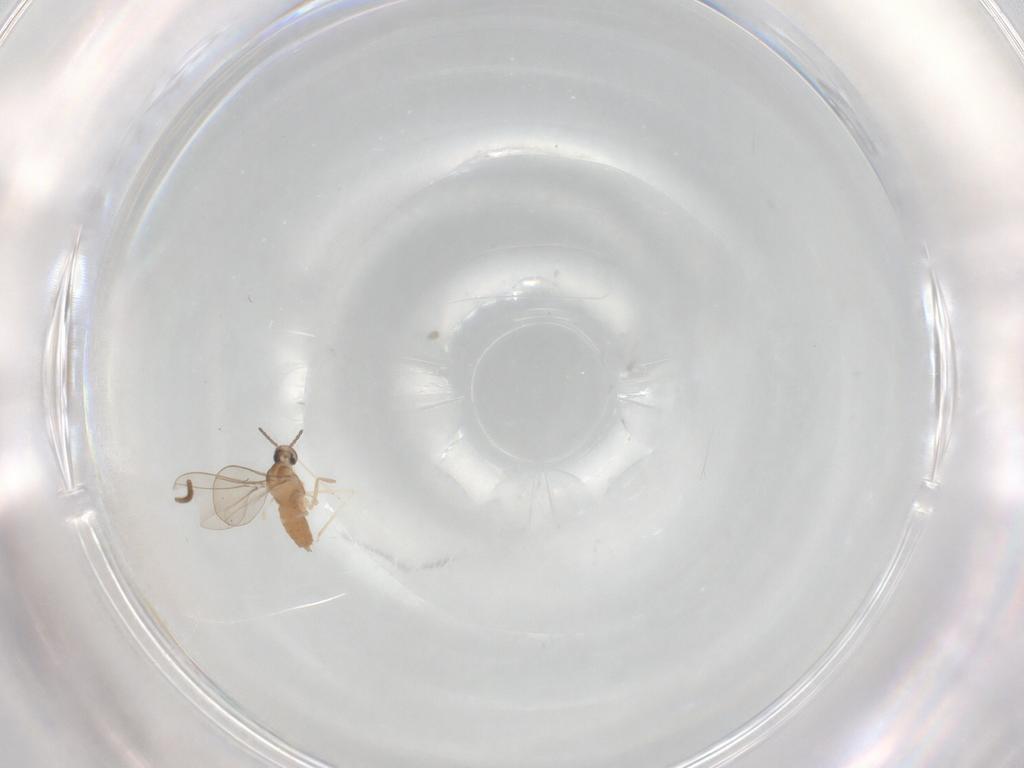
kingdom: Animalia
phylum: Arthropoda
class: Insecta
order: Diptera
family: Sciaridae
